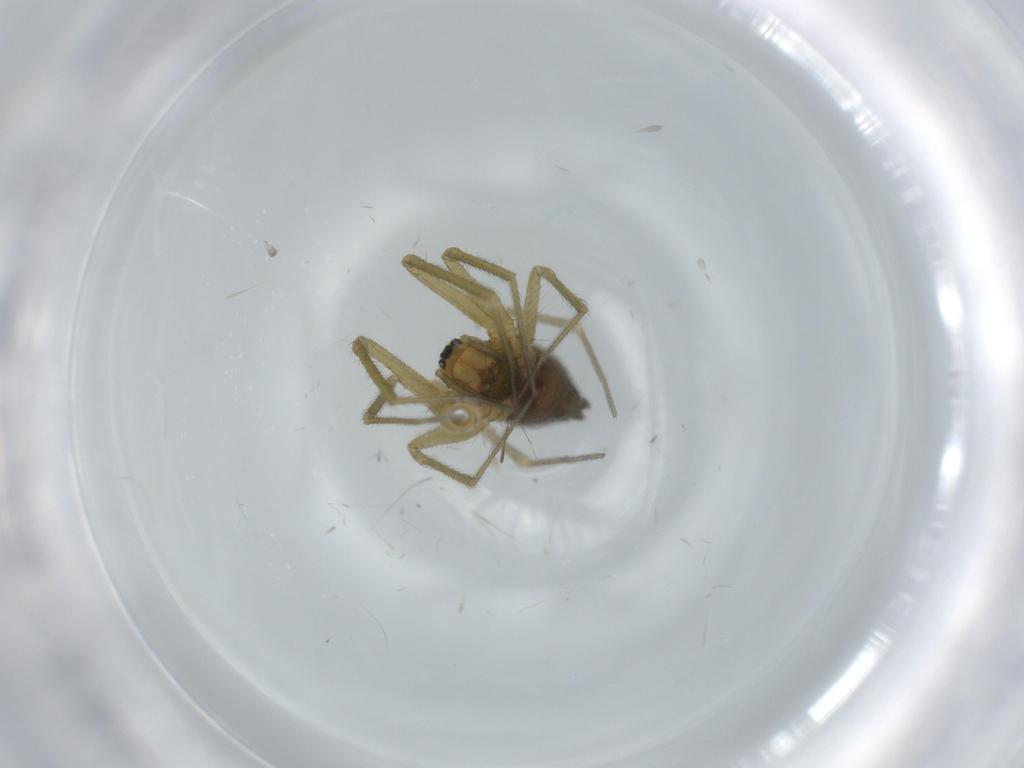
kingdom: Animalia
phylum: Arthropoda
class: Arachnida
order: Araneae
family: Linyphiidae
